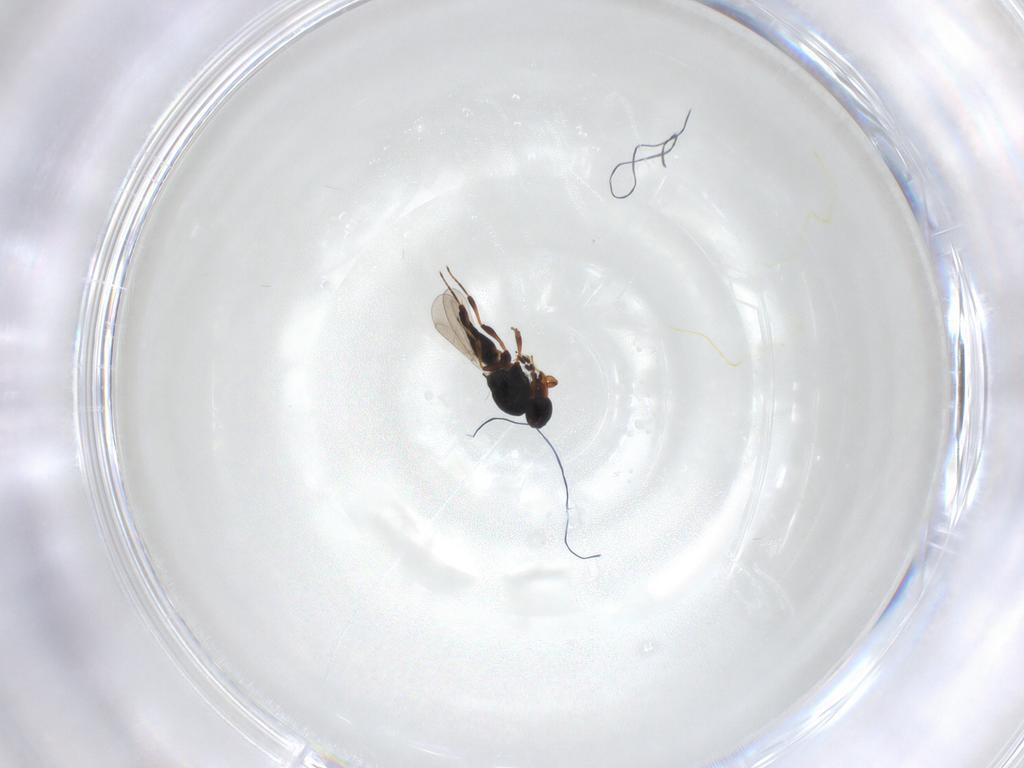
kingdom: Animalia
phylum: Arthropoda
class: Insecta
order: Hymenoptera
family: Platygastridae
